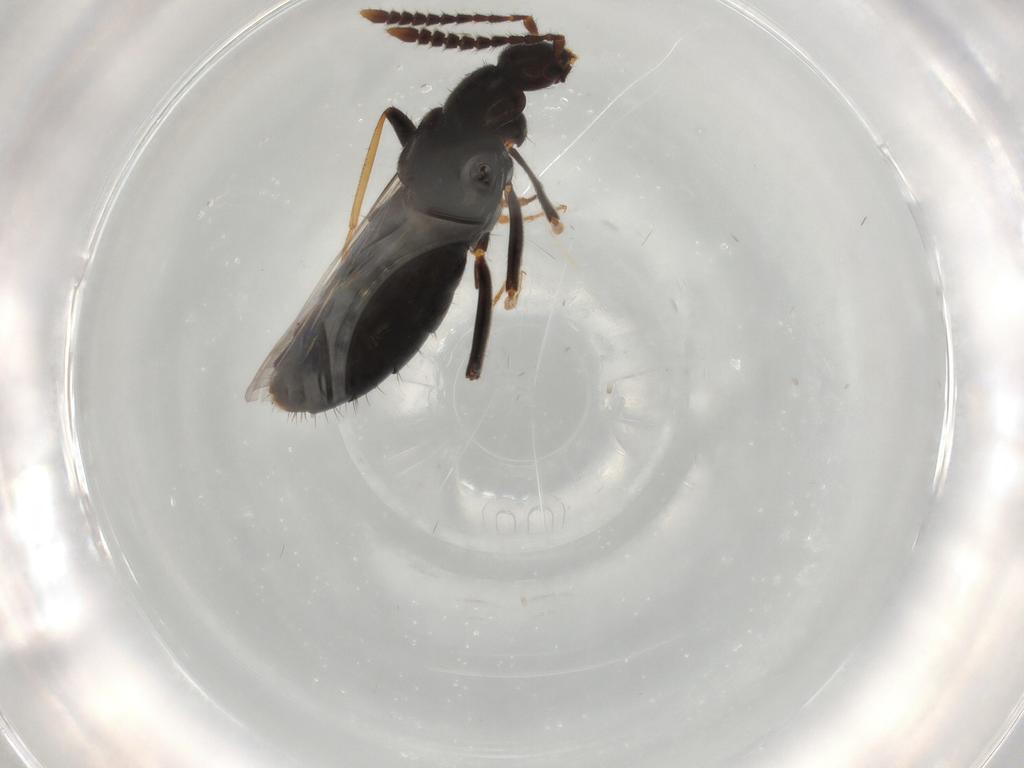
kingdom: Animalia
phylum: Arthropoda
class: Insecta
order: Coleoptera
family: Staphylinidae
